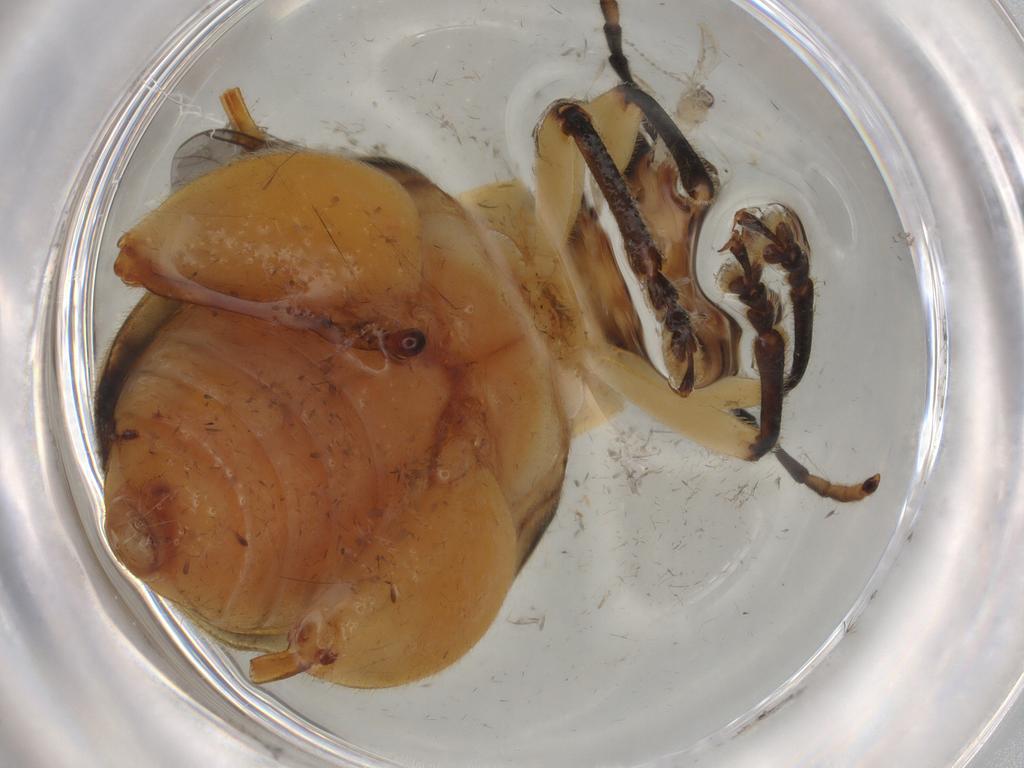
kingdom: Animalia
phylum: Arthropoda
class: Insecta
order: Coleoptera
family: Chrysomelidae
